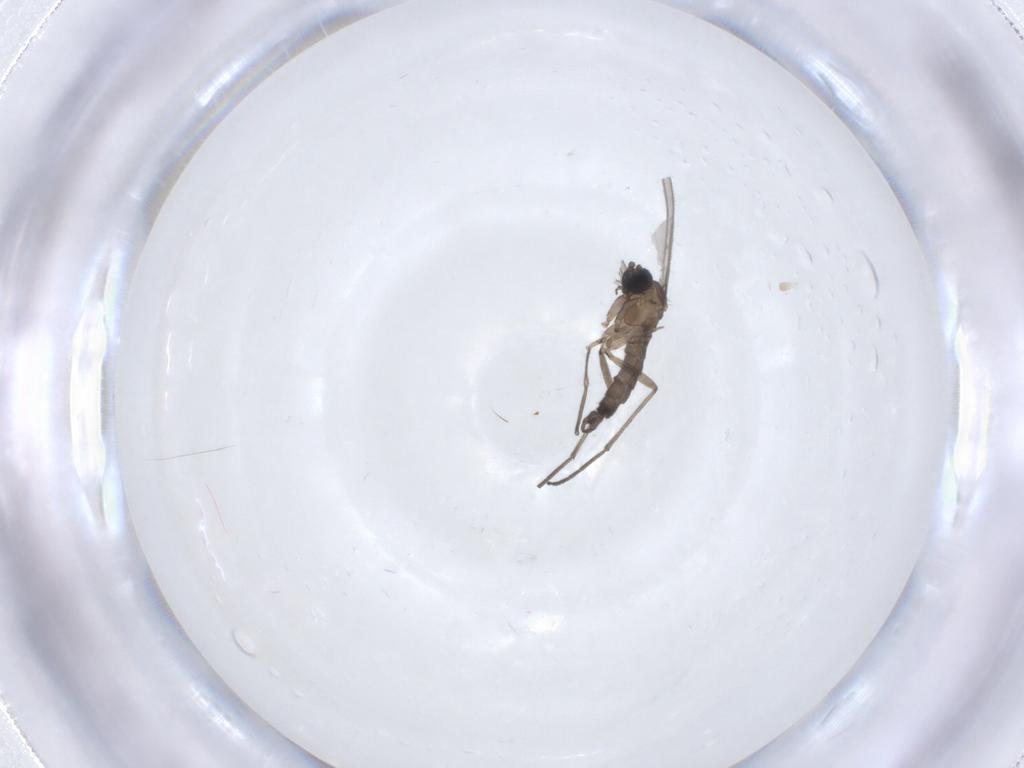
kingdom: Animalia
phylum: Arthropoda
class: Insecta
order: Diptera
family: Sciaridae
